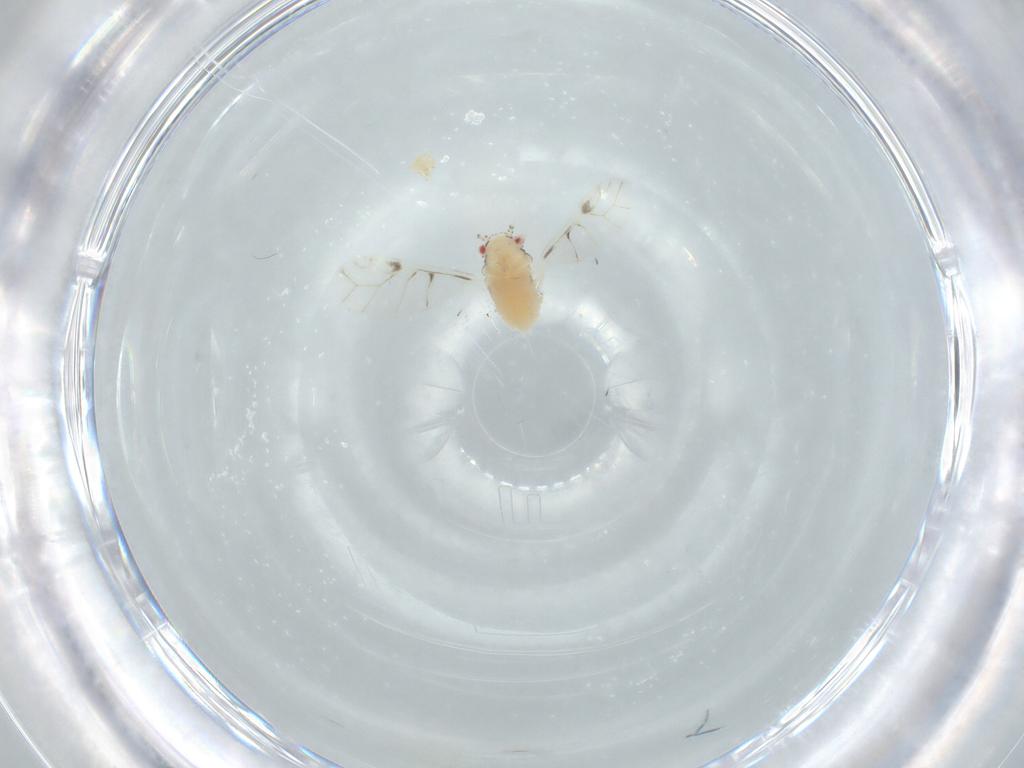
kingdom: Animalia
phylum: Arthropoda
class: Insecta
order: Hemiptera
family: Aphididae
